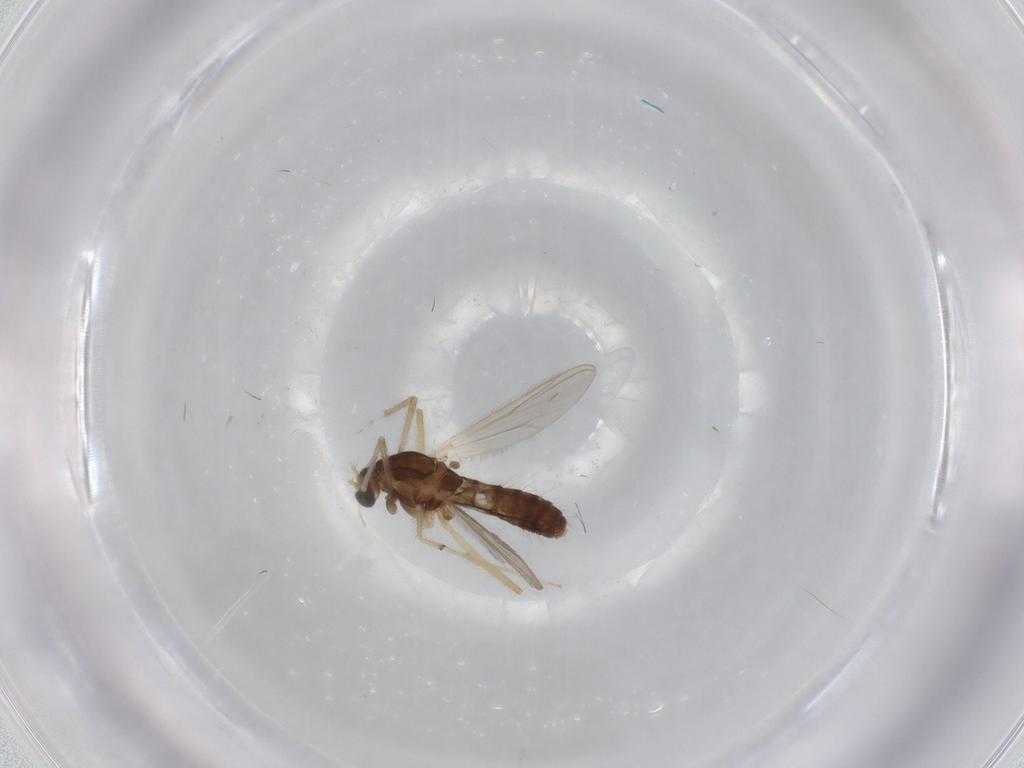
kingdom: Animalia
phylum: Arthropoda
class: Insecta
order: Diptera
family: Chironomidae
